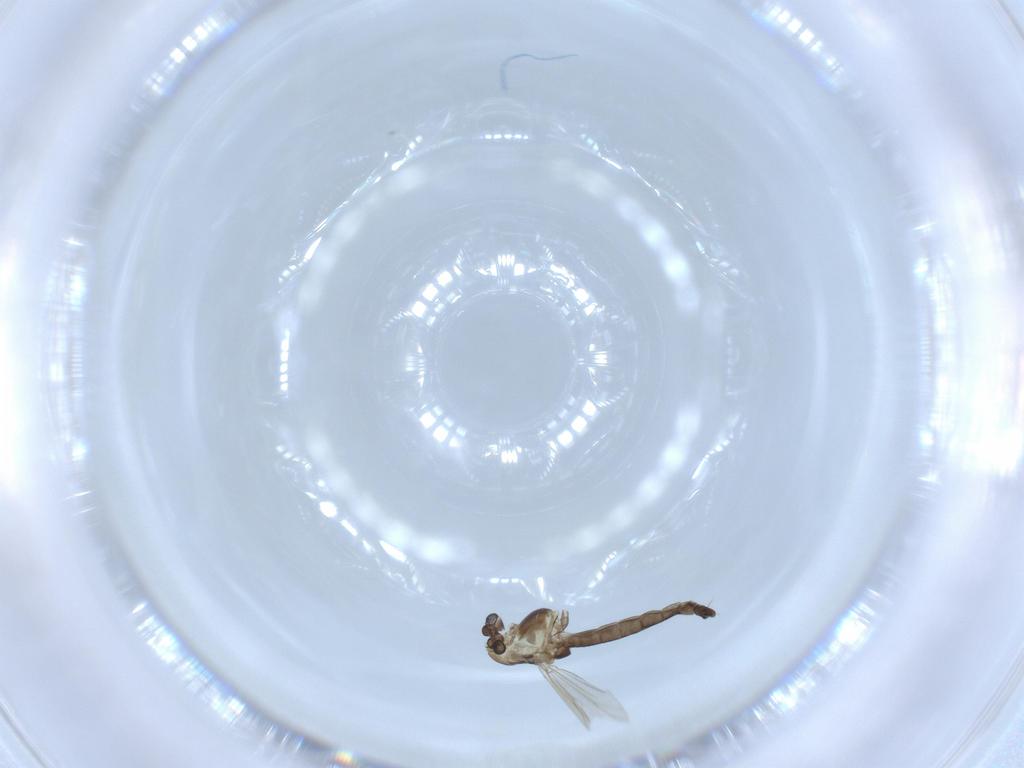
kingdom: Animalia
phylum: Arthropoda
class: Insecta
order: Diptera
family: Chironomidae
